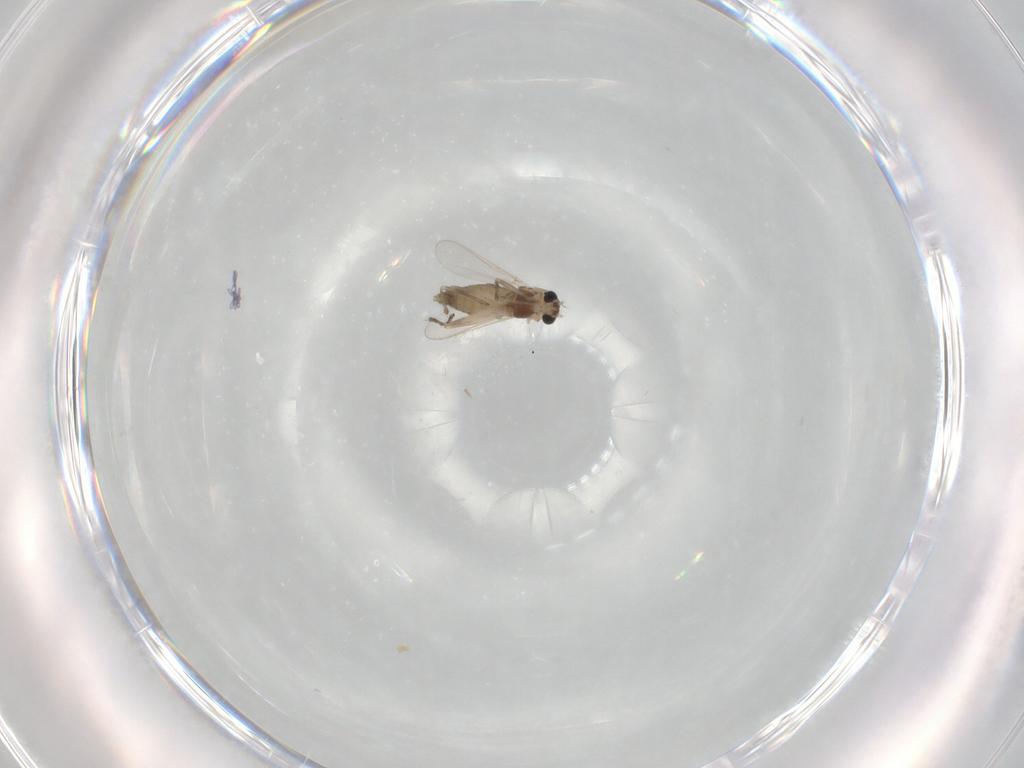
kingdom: Animalia
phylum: Arthropoda
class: Insecta
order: Diptera
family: Chironomidae
